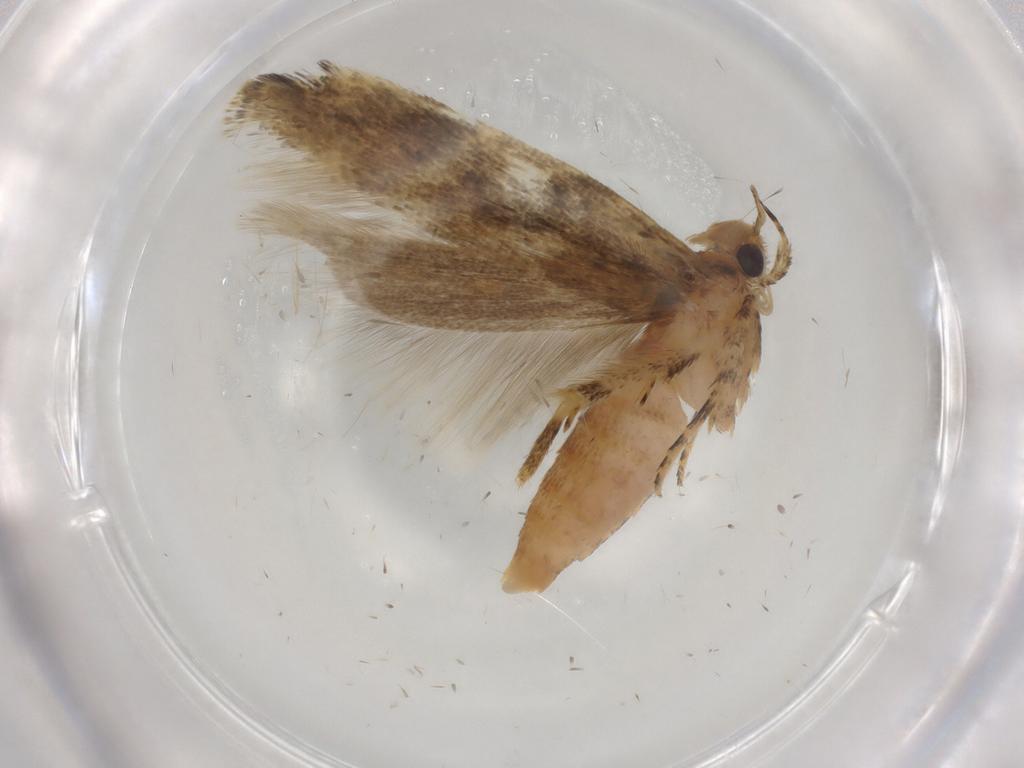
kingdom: Animalia
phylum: Arthropoda
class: Insecta
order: Lepidoptera
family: Gelechiidae
